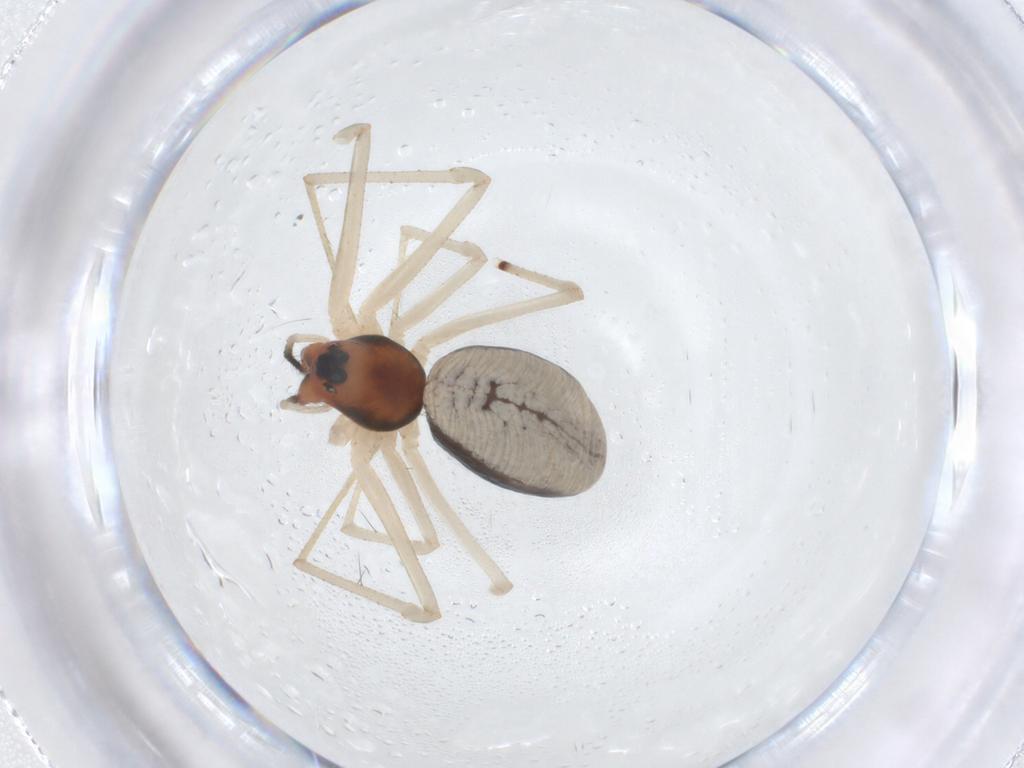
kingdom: Animalia
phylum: Arthropoda
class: Arachnida
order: Araneae
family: Linyphiidae
